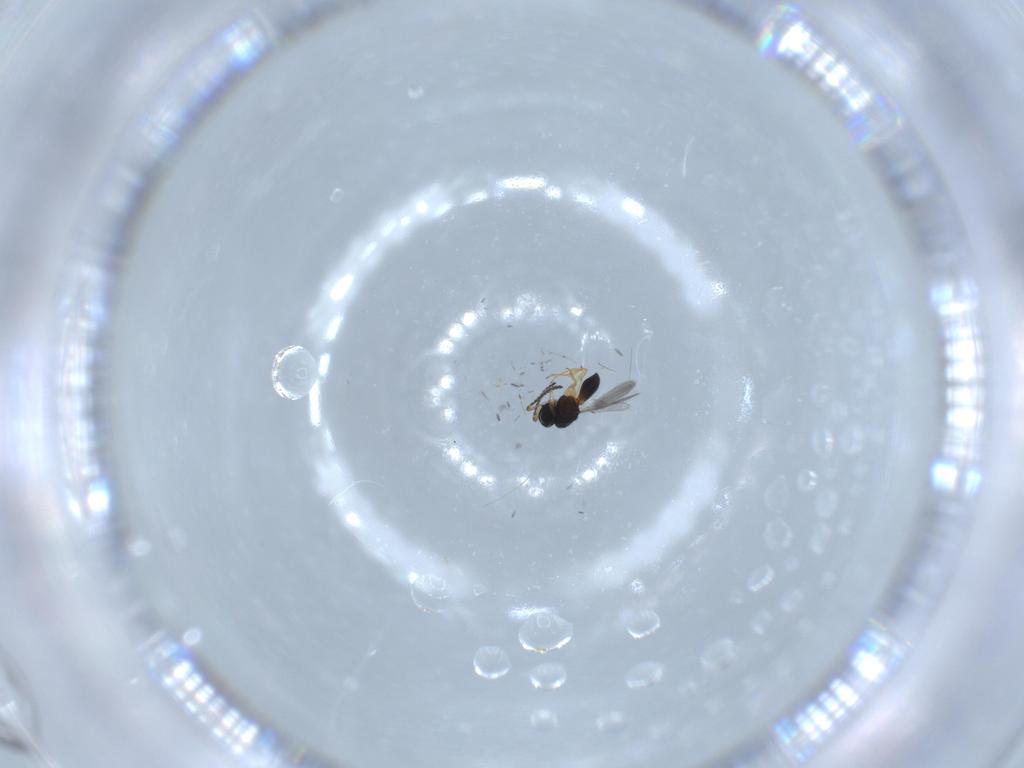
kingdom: Animalia
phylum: Arthropoda
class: Insecta
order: Hymenoptera
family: Scelionidae
